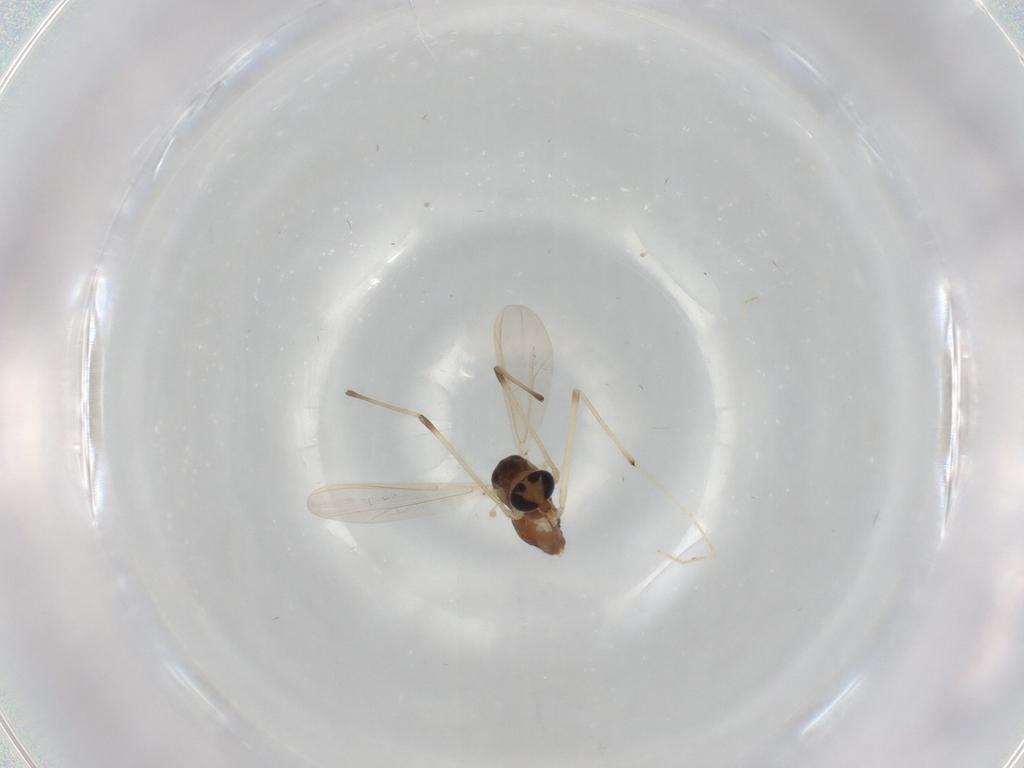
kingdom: Animalia
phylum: Arthropoda
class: Insecta
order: Diptera
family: Chironomidae
